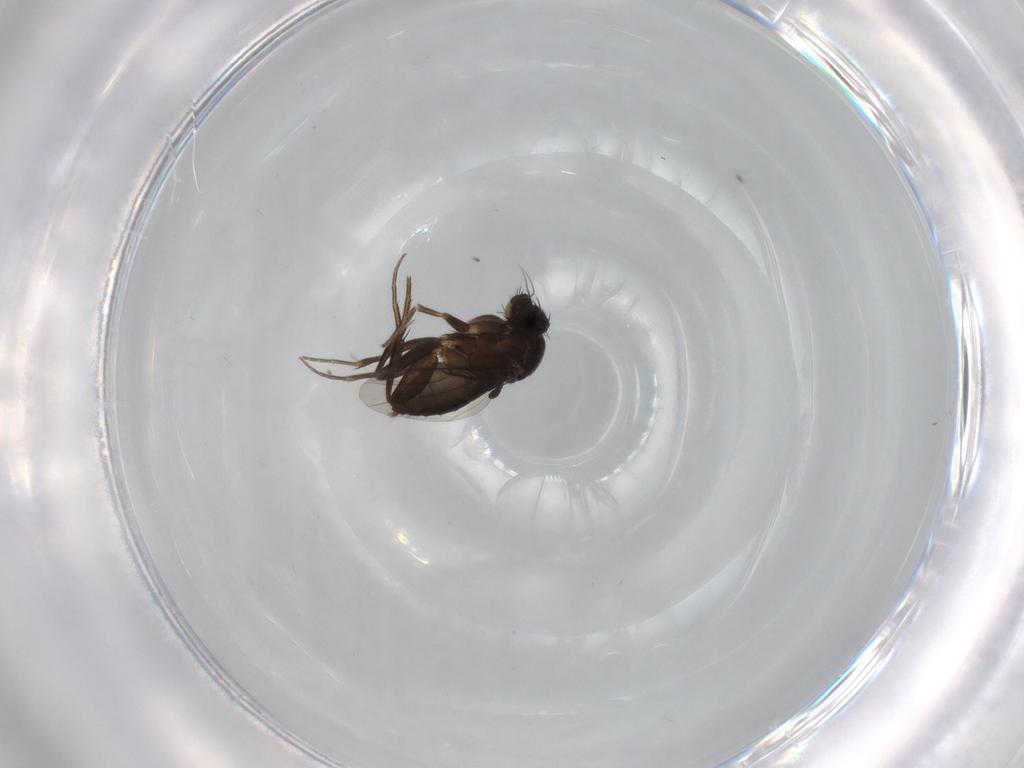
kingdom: Animalia
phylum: Arthropoda
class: Insecta
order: Diptera
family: Ephydridae
